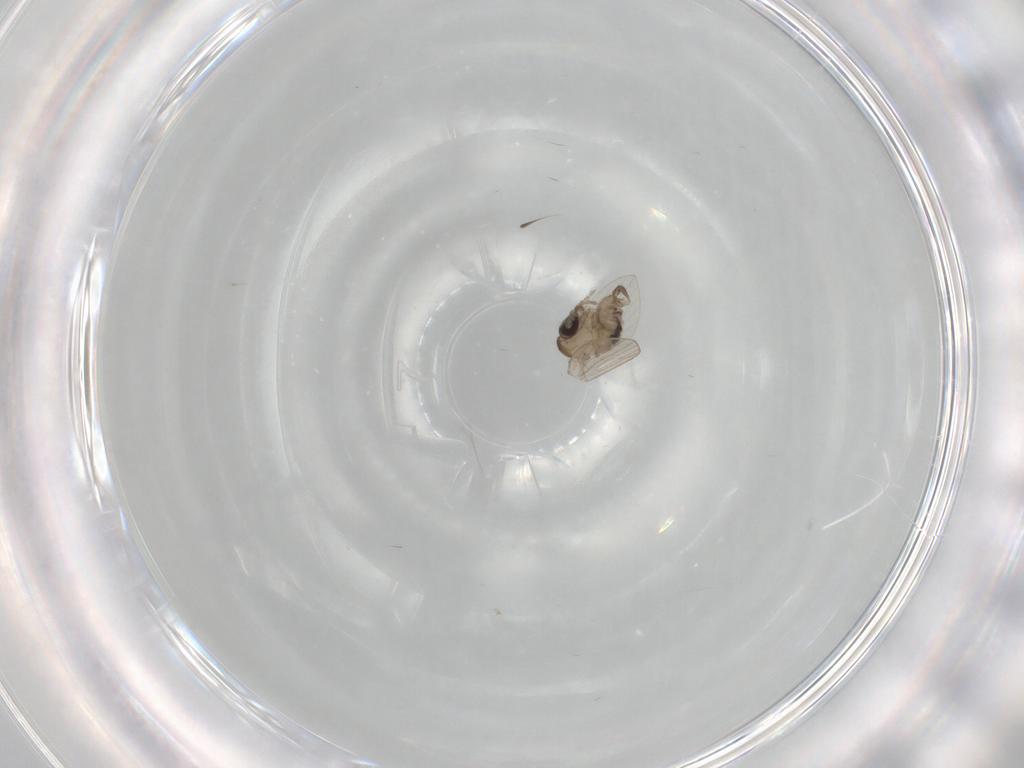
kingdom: Animalia
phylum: Arthropoda
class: Insecta
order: Diptera
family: Psychodidae
